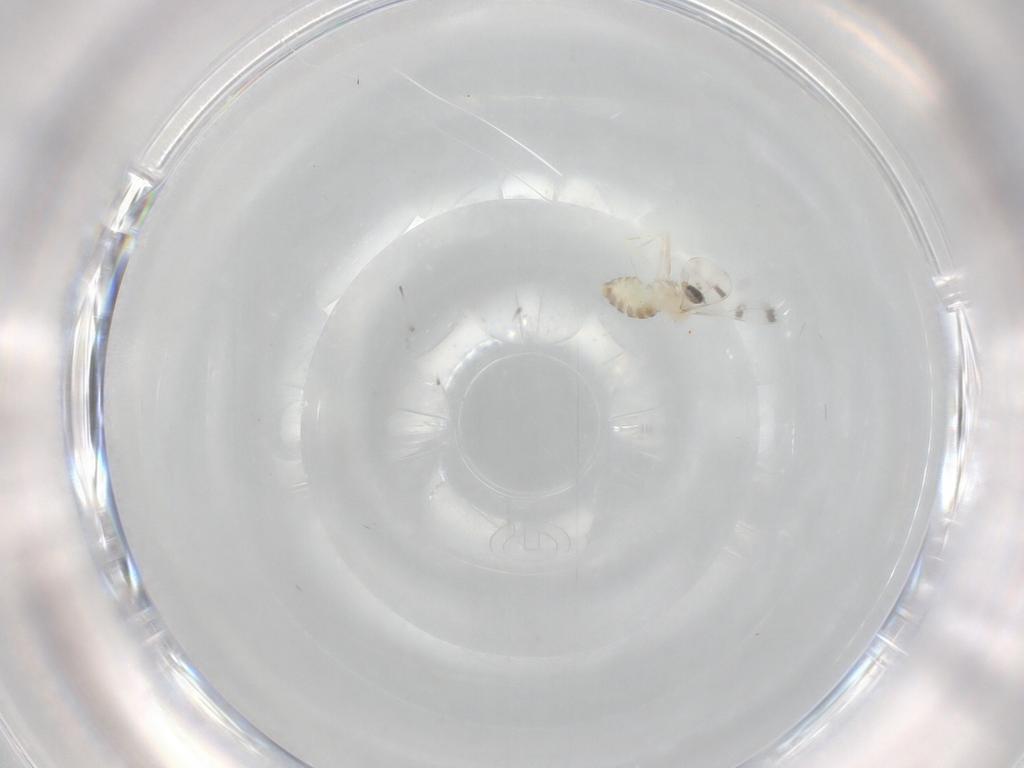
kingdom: Animalia
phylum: Arthropoda
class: Insecta
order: Diptera
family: Cecidomyiidae
